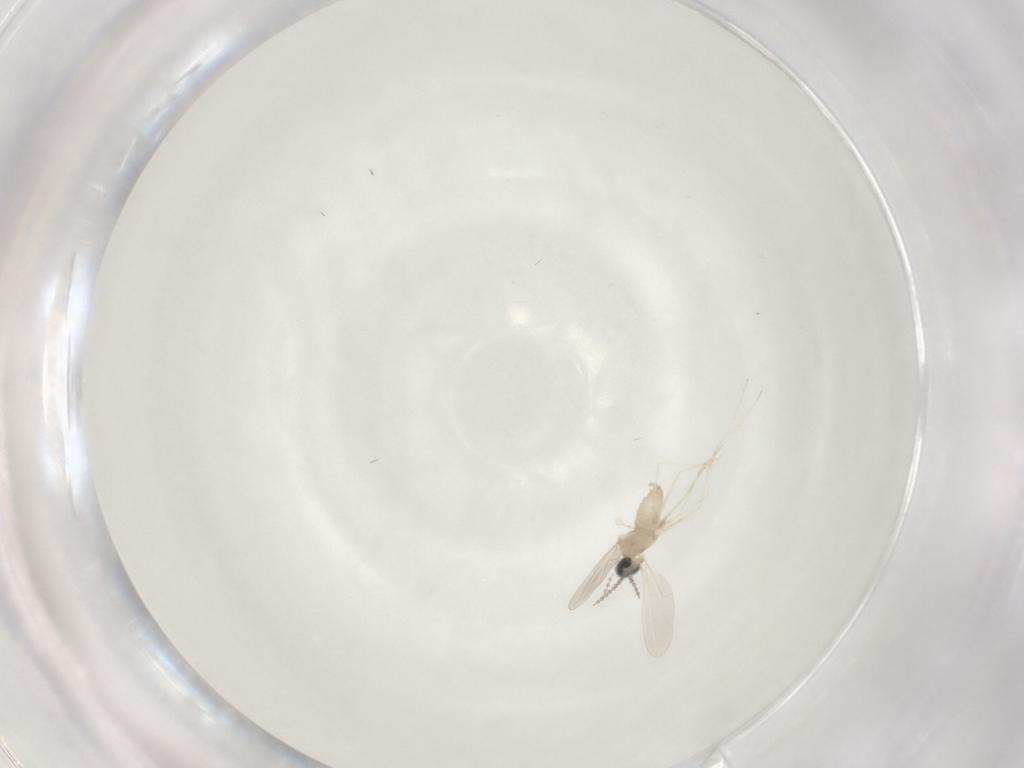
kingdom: Animalia
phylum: Arthropoda
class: Insecta
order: Diptera
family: Cecidomyiidae
